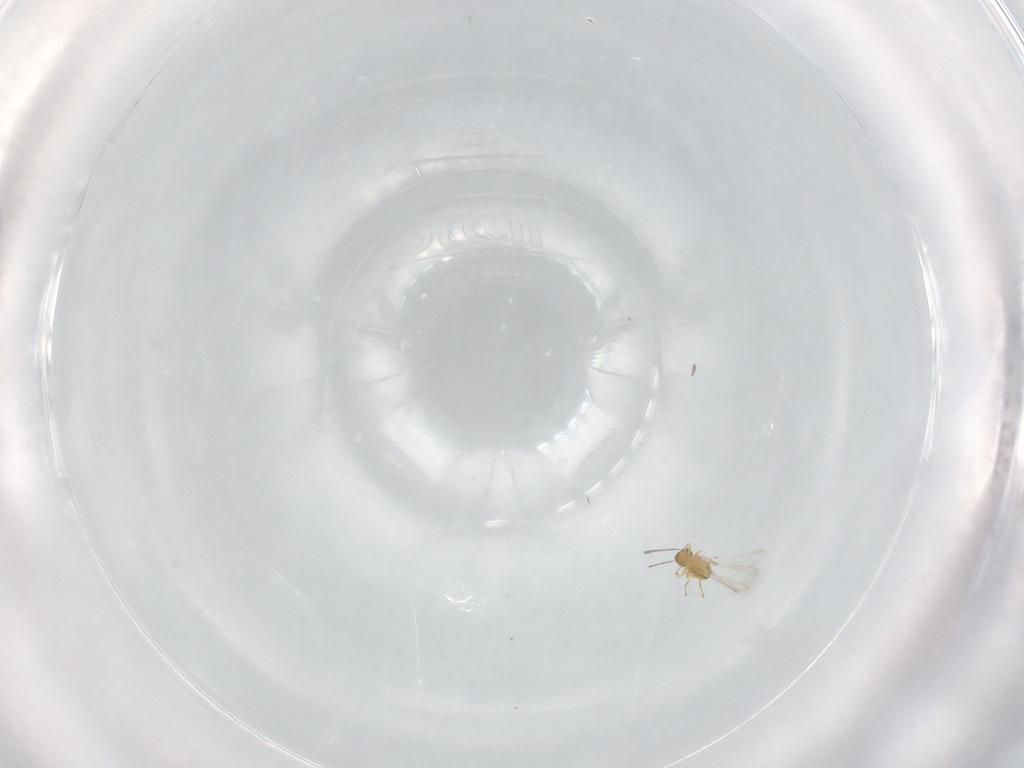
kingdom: Animalia
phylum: Arthropoda
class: Insecta
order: Hymenoptera
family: Mymaridae
